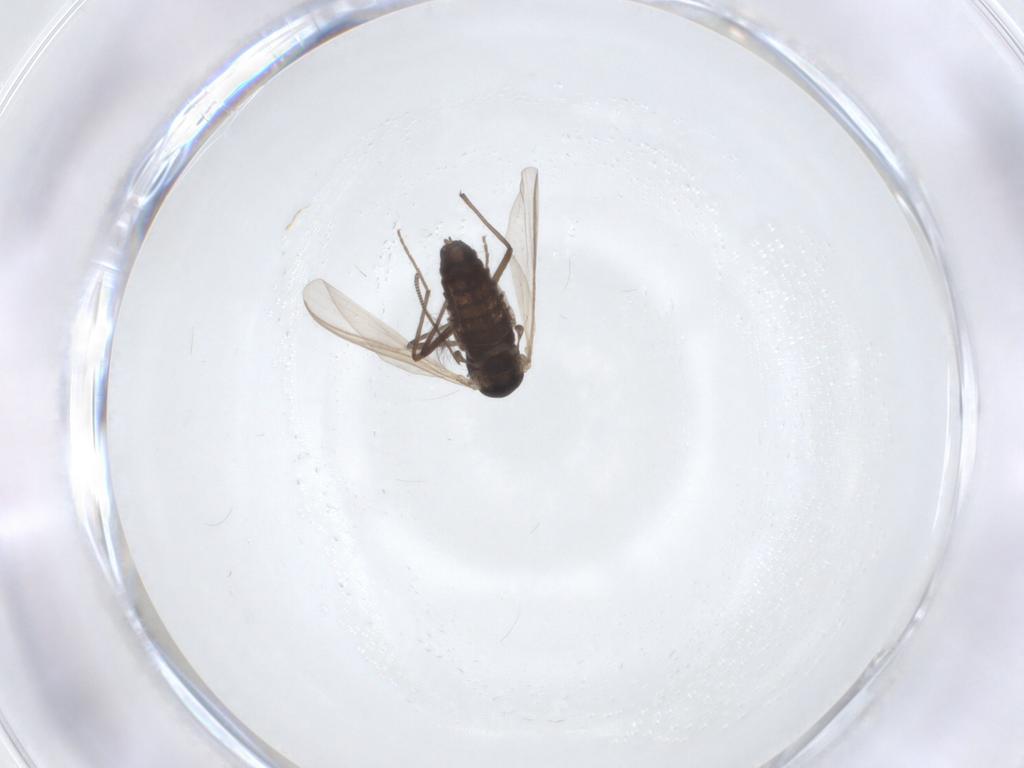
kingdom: Animalia
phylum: Arthropoda
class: Insecta
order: Diptera
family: Chironomidae
